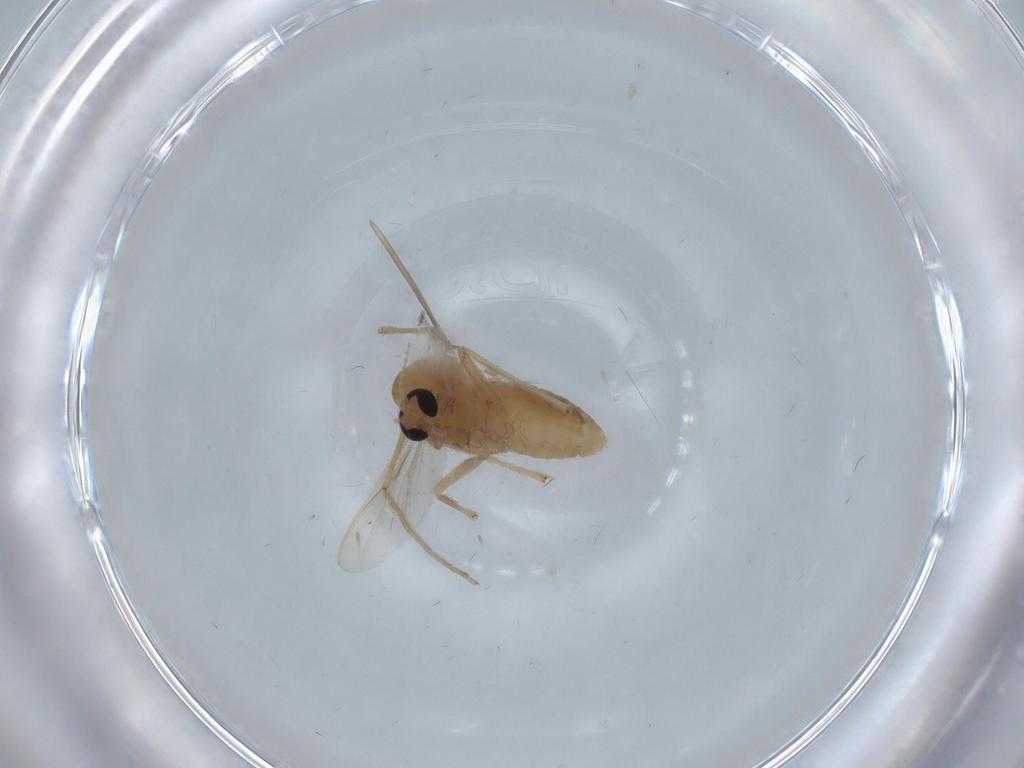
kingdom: Animalia
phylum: Arthropoda
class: Insecta
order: Diptera
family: Chironomidae
